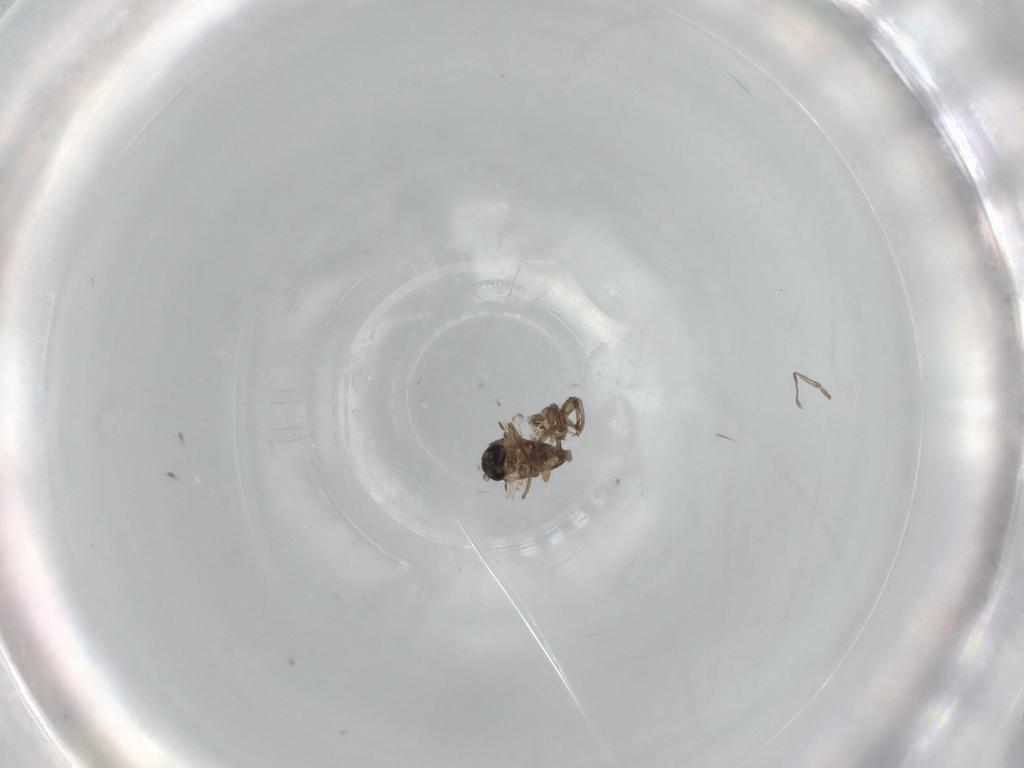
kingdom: Animalia
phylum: Arthropoda
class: Insecta
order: Diptera
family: Psychodidae
